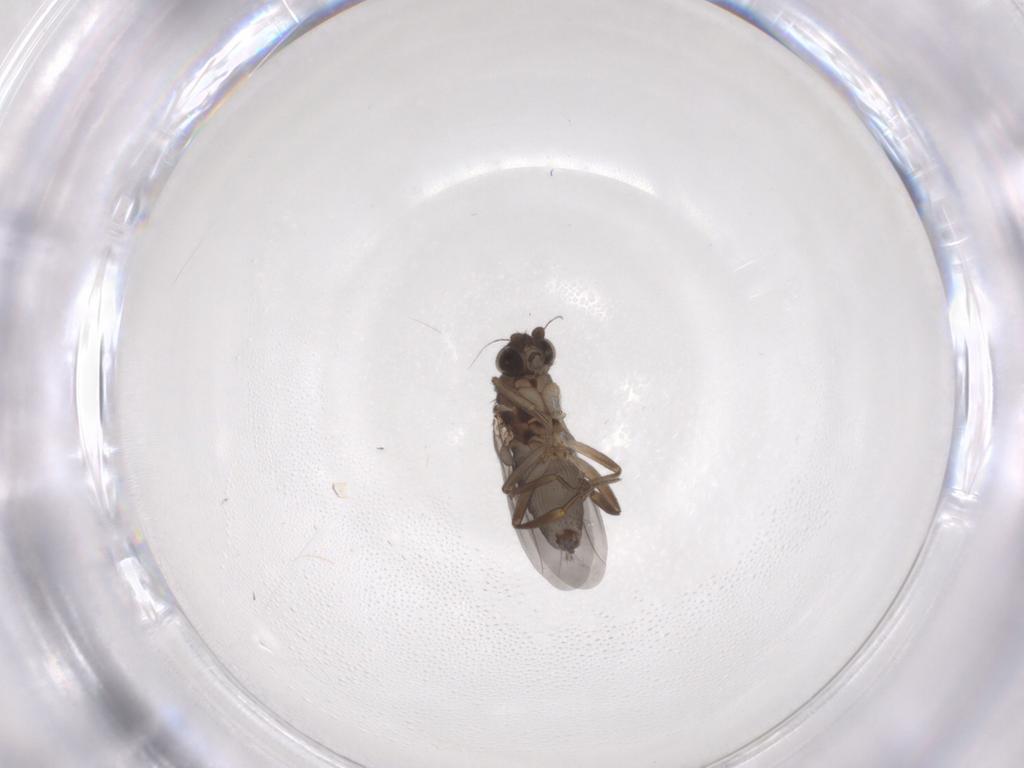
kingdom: Animalia
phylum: Arthropoda
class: Insecta
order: Diptera
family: Phoridae
